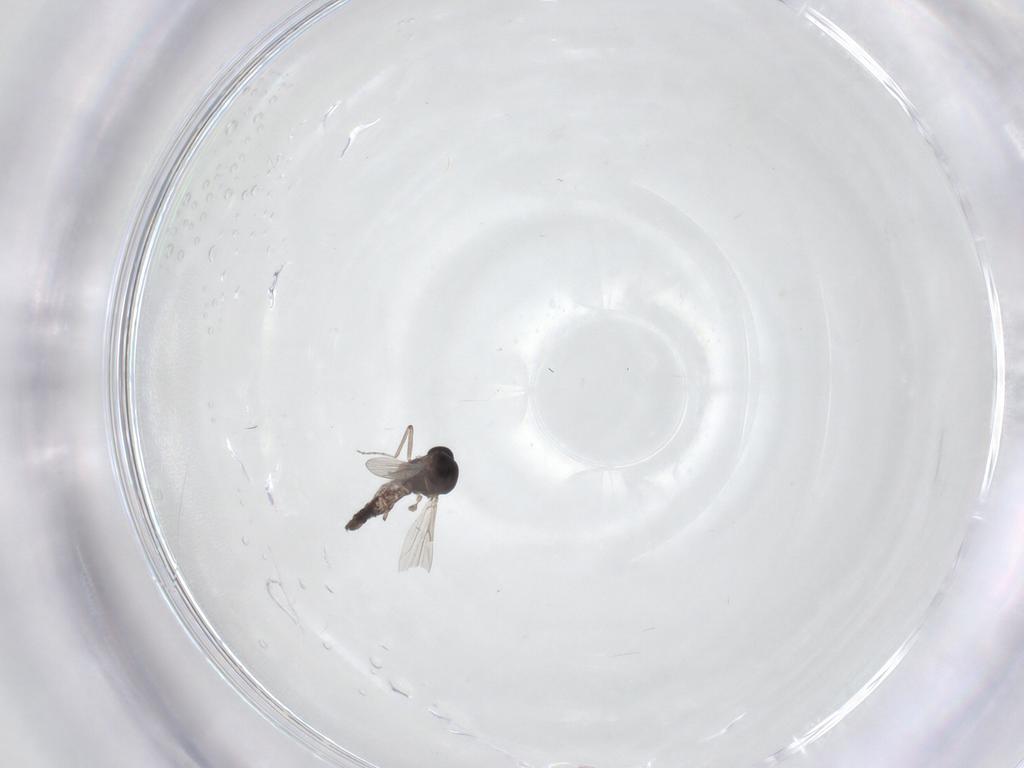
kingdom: Animalia
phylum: Arthropoda
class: Insecta
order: Diptera
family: Ceratopogonidae
